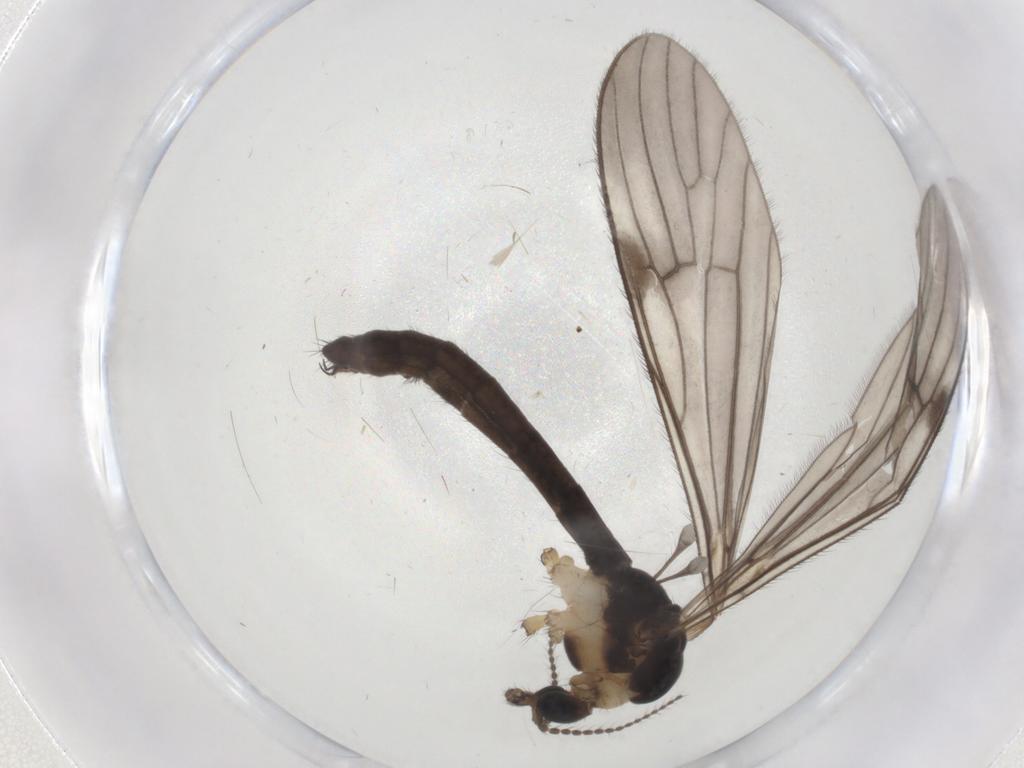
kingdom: Animalia
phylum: Arthropoda
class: Insecta
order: Diptera
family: Limoniidae
